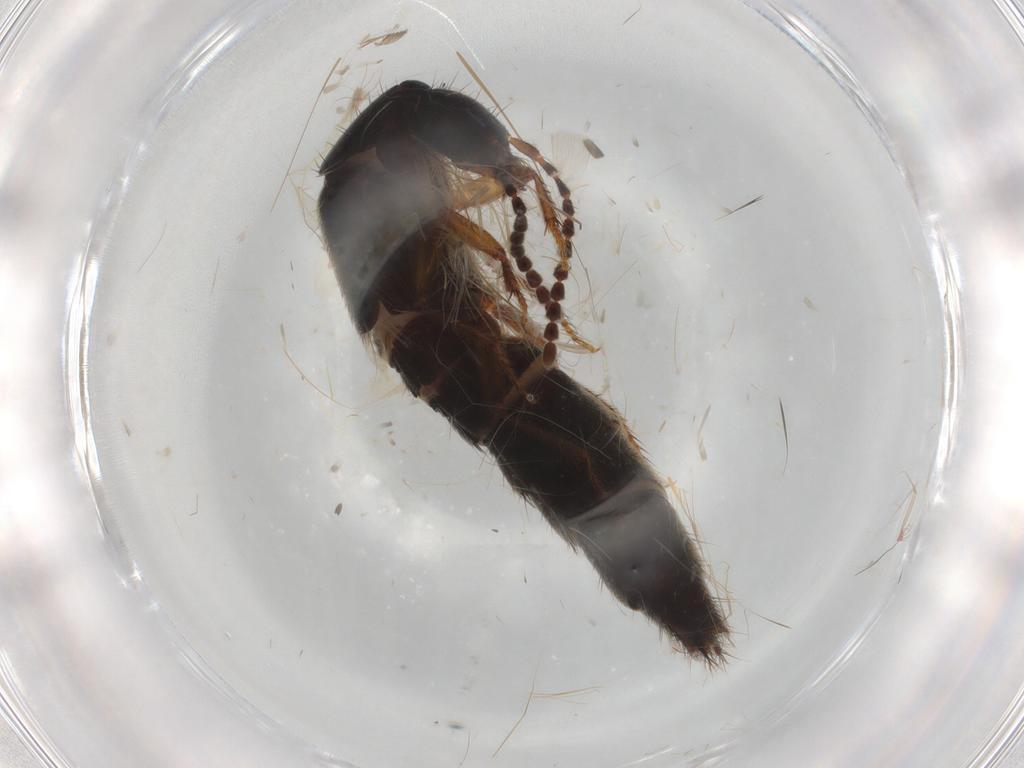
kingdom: Animalia
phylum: Arthropoda
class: Insecta
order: Coleoptera
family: Staphylinidae
